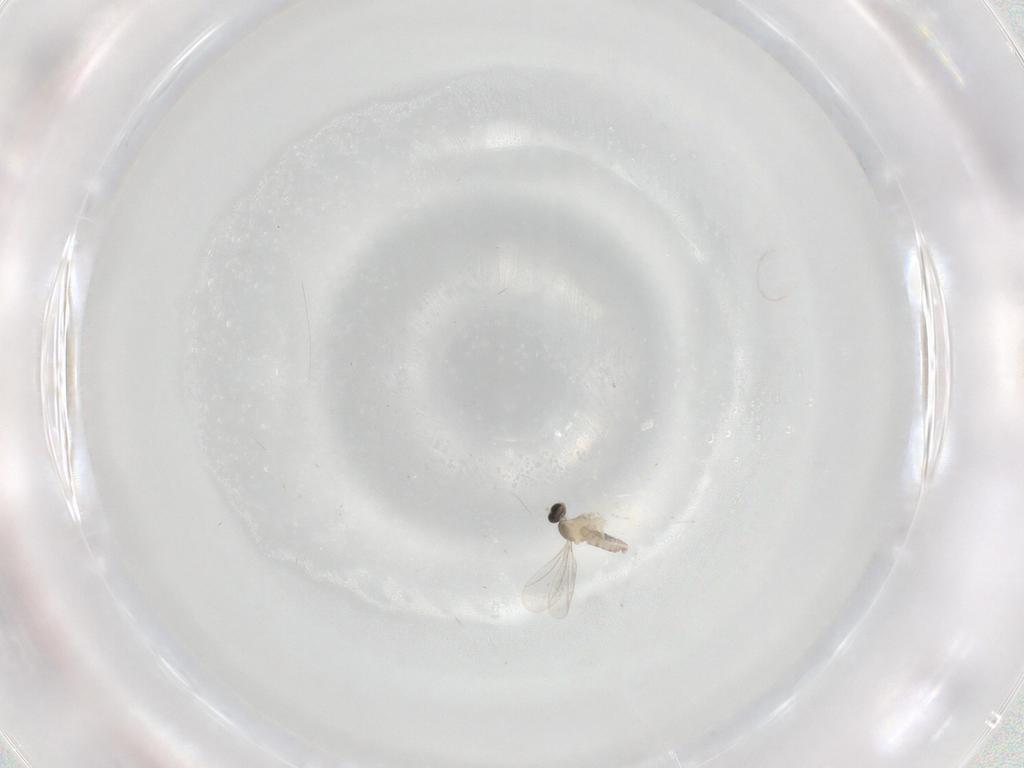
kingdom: Animalia
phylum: Arthropoda
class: Insecta
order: Diptera
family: Cecidomyiidae
